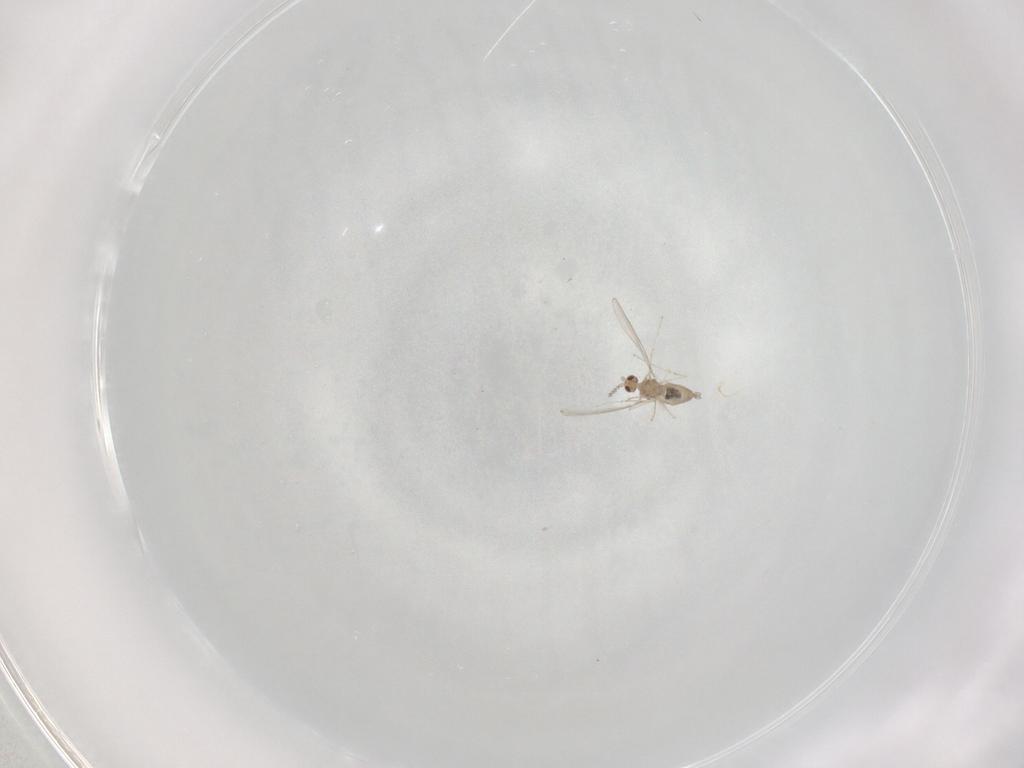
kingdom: Animalia
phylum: Arthropoda
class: Insecta
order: Diptera
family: Cecidomyiidae
